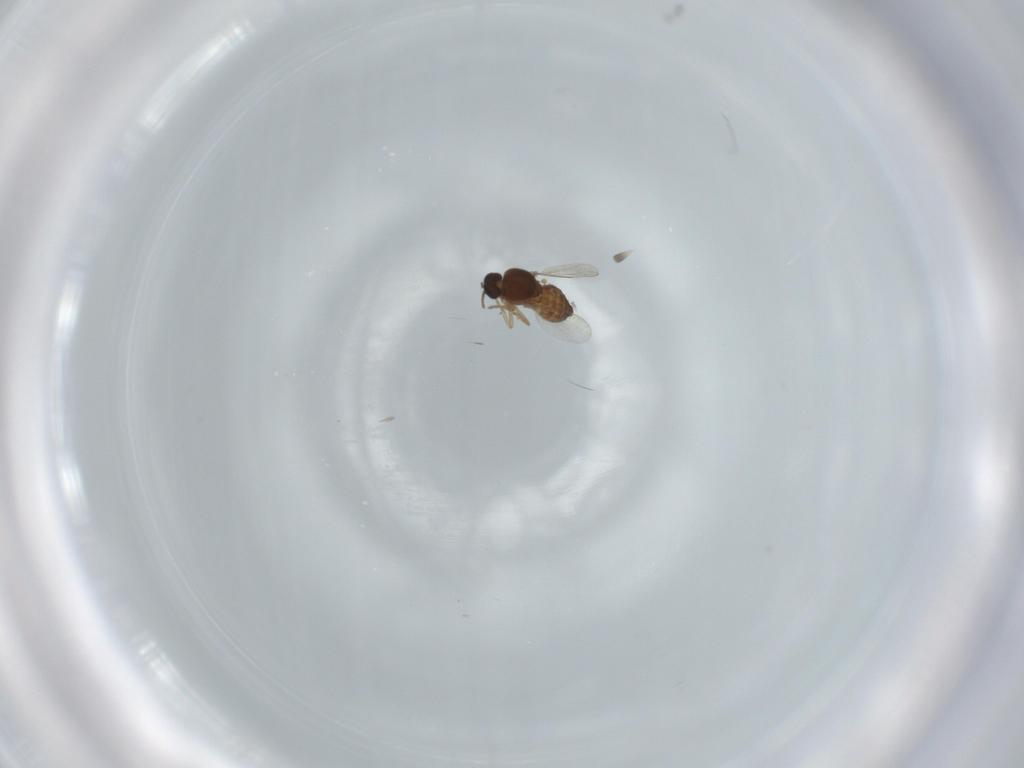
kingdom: Animalia
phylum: Arthropoda
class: Insecta
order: Diptera
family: Ceratopogonidae
